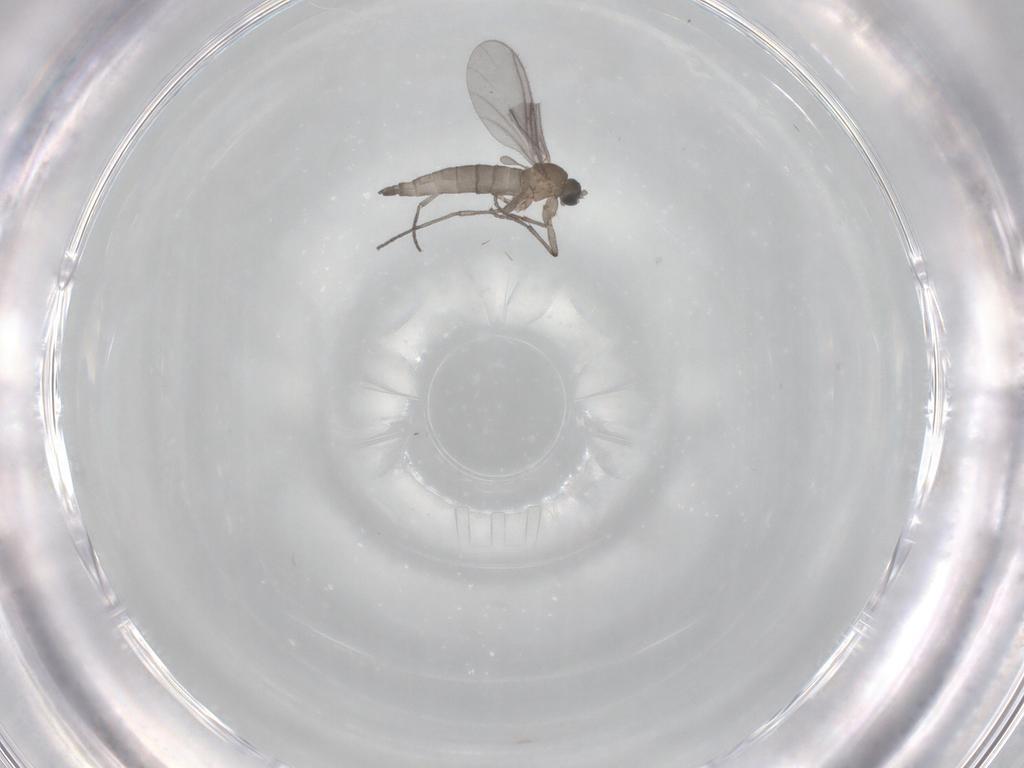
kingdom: Animalia
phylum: Arthropoda
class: Insecta
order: Diptera
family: Sciaridae
